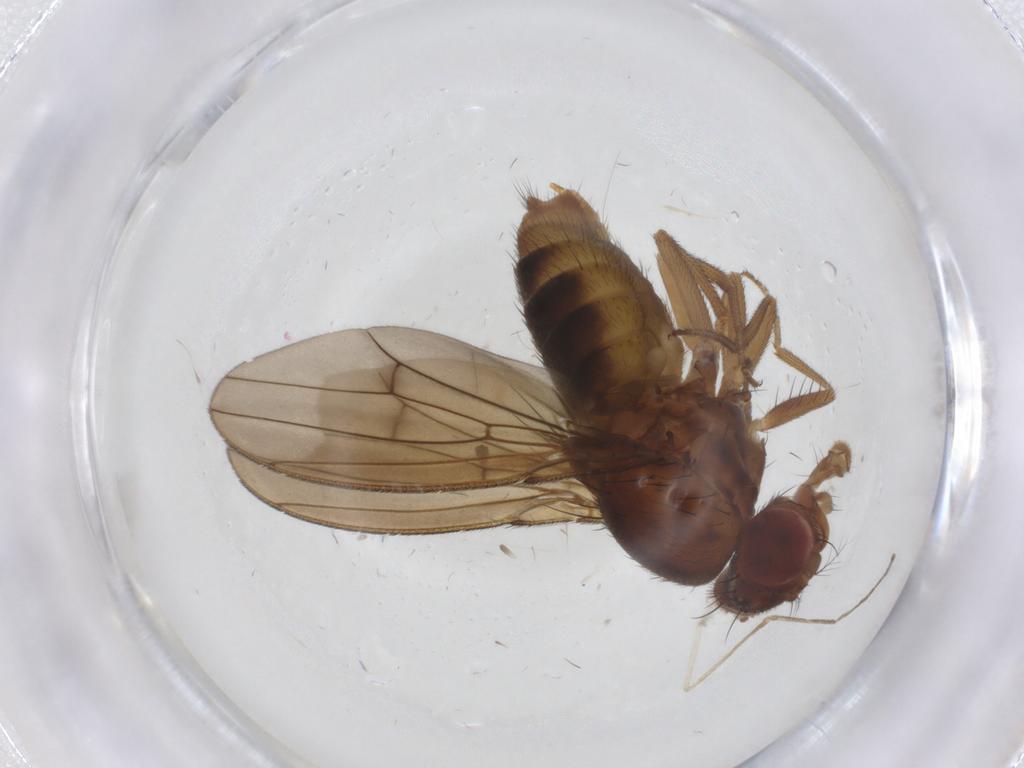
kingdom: Animalia
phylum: Arthropoda
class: Insecta
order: Diptera
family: Drosophilidae
